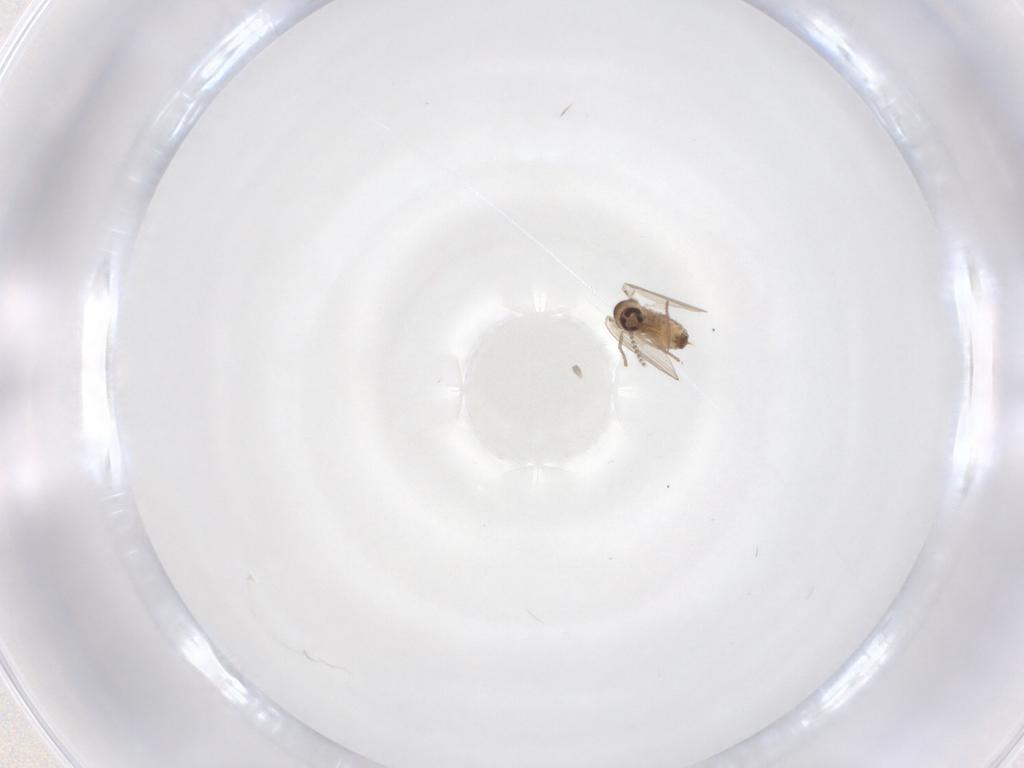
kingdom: Animalia
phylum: Arthropoda
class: Insecta
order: Diptera
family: Psychodidae
